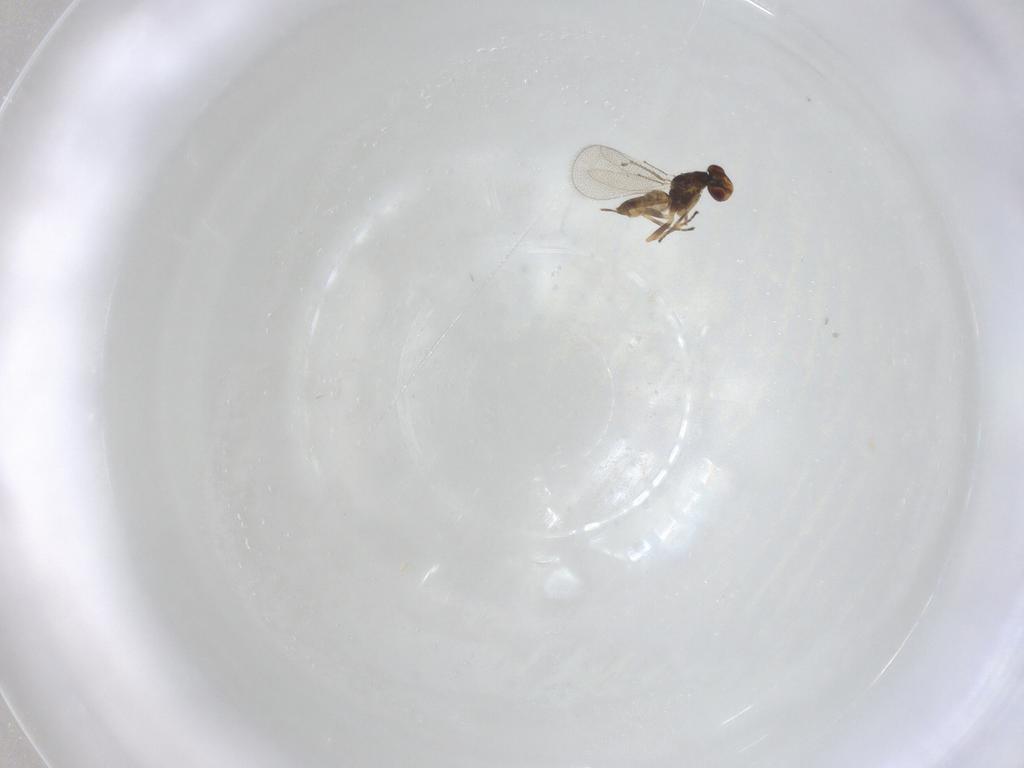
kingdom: Animalia
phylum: Arthropoda
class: Insecta
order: Hymenoptera
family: Eulophidae
